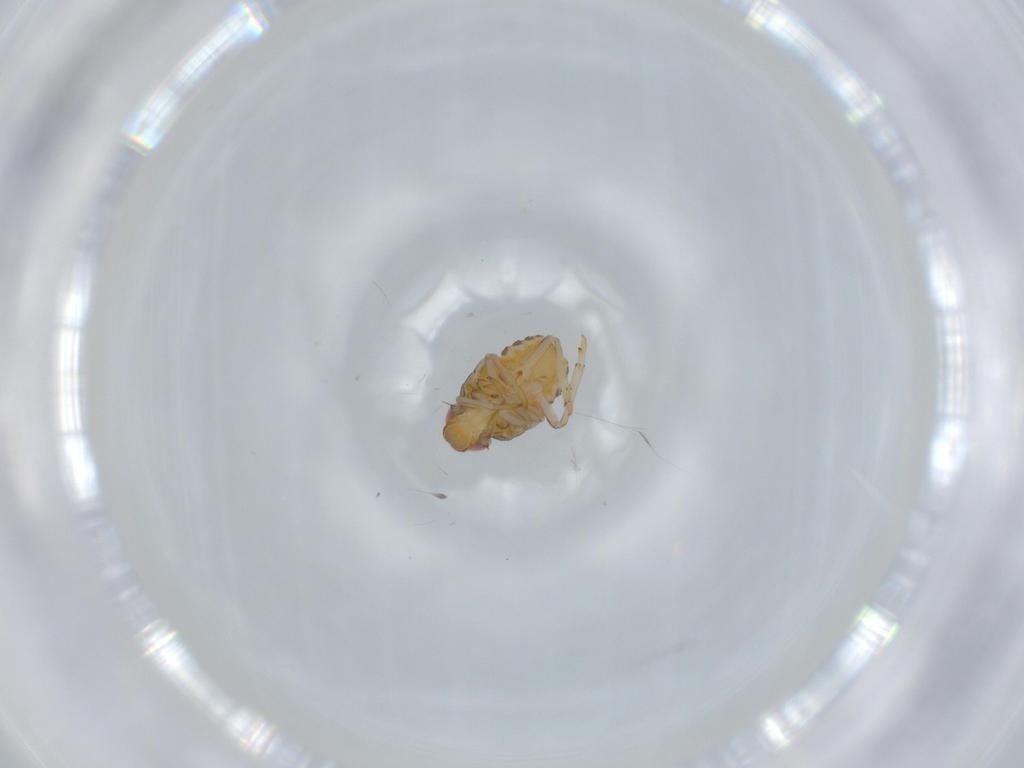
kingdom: Animalia
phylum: Arthropoda
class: Insecta
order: Hemiptera
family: Issidae
